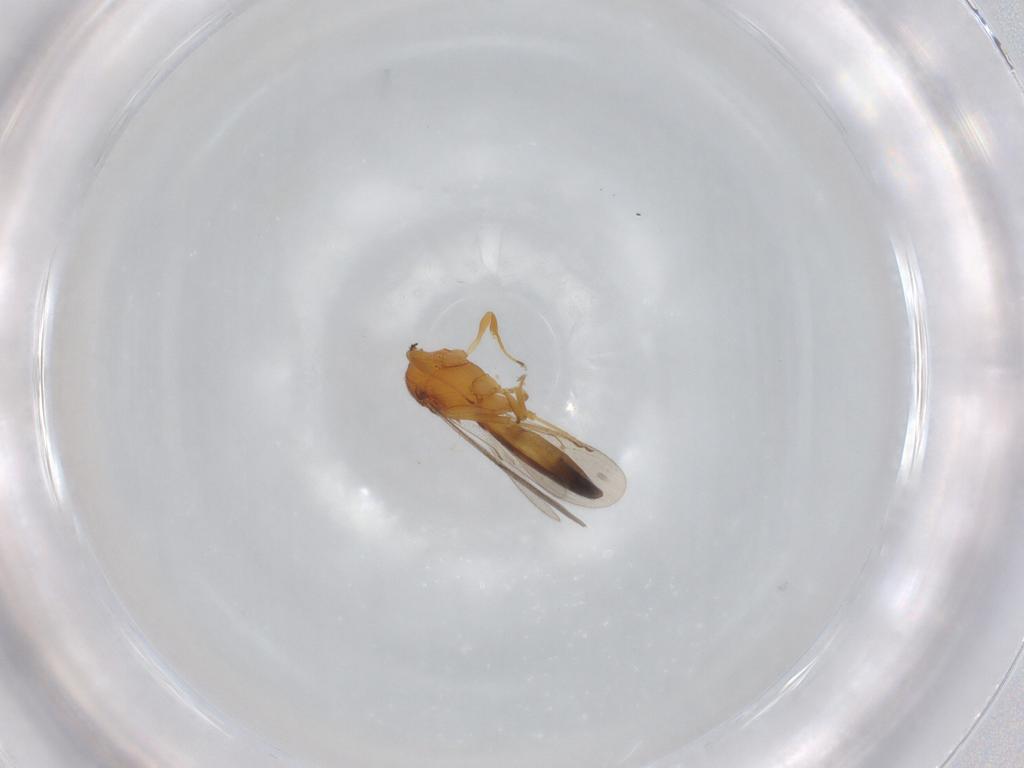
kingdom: Animalia
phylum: Arthropoda
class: Insecta
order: Hymenoptera
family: Scelionidae
